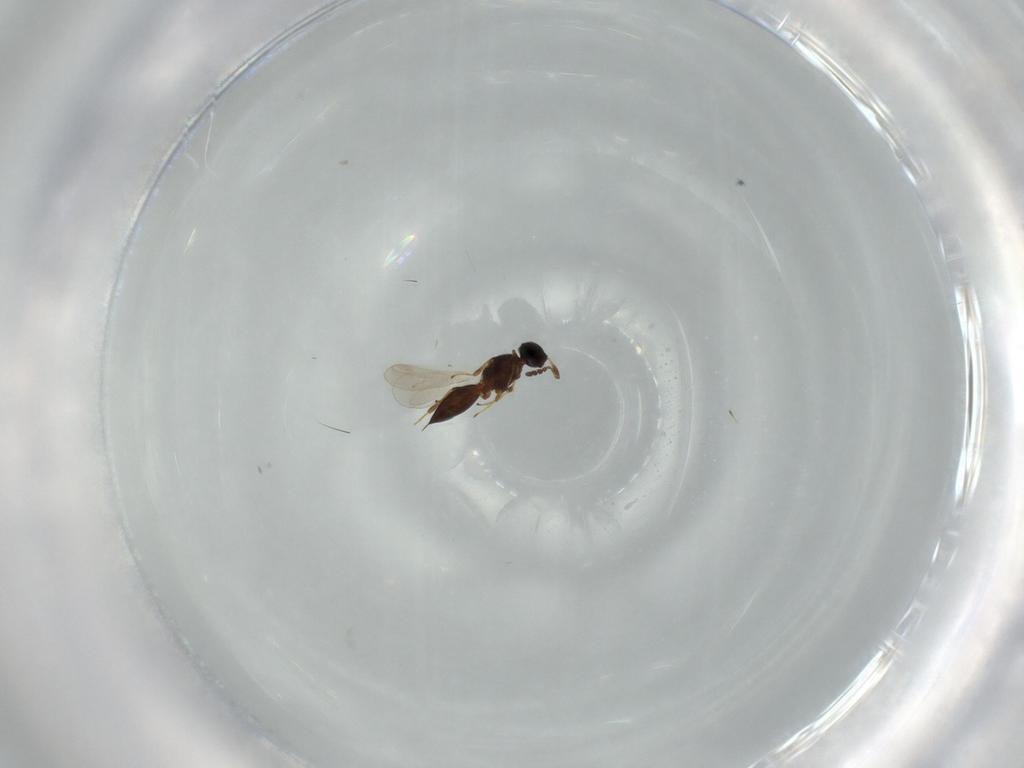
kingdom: Animalia
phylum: Arthropoda
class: Insecta
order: Hymenoptera
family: Platygastridae
